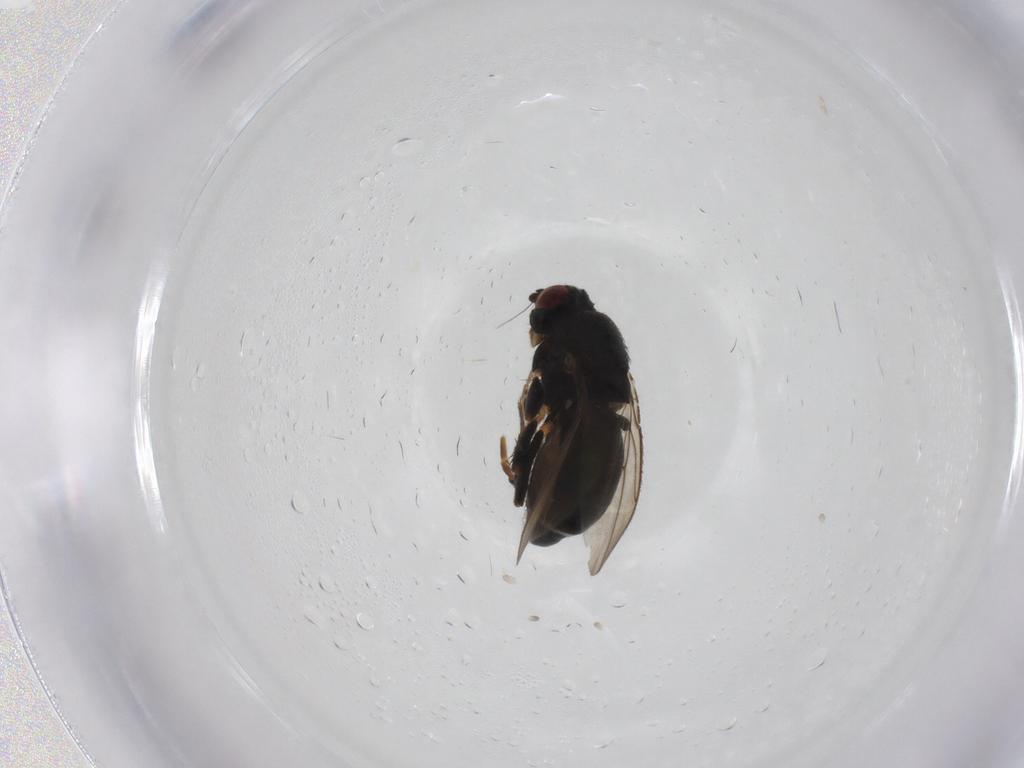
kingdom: Animalia
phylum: Arthropoda
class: Insecta
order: Diptera
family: Sphaeroceridae
